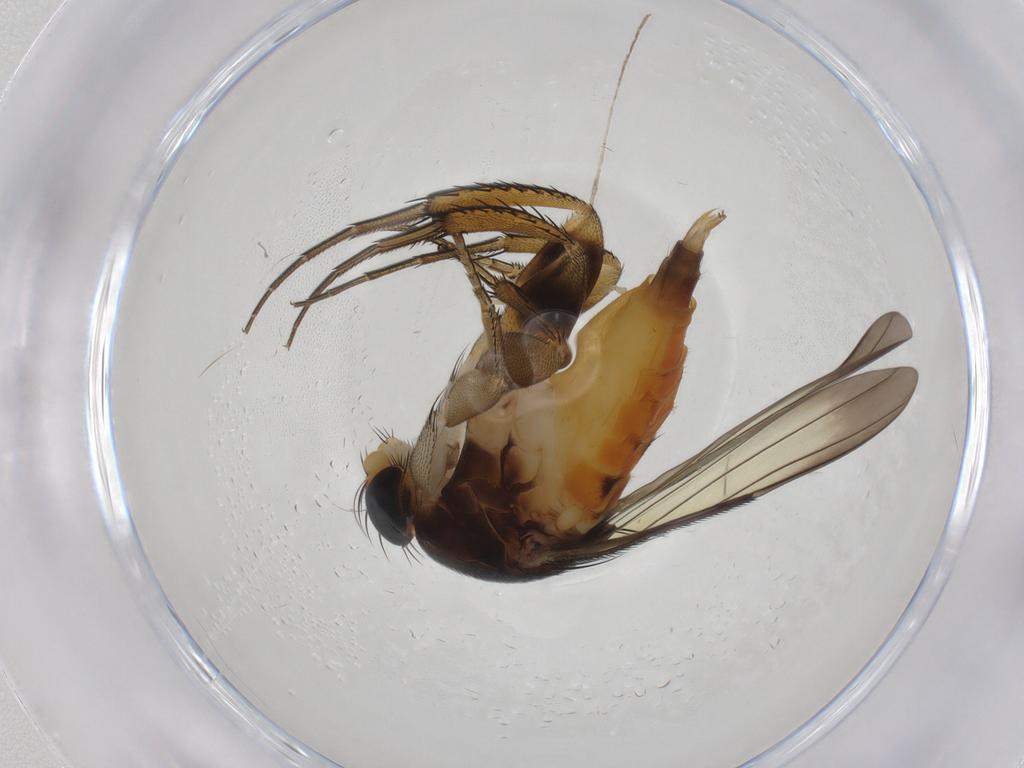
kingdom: Animalia
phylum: Arthropoda
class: Insecta
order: Diptera
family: Phoridae
